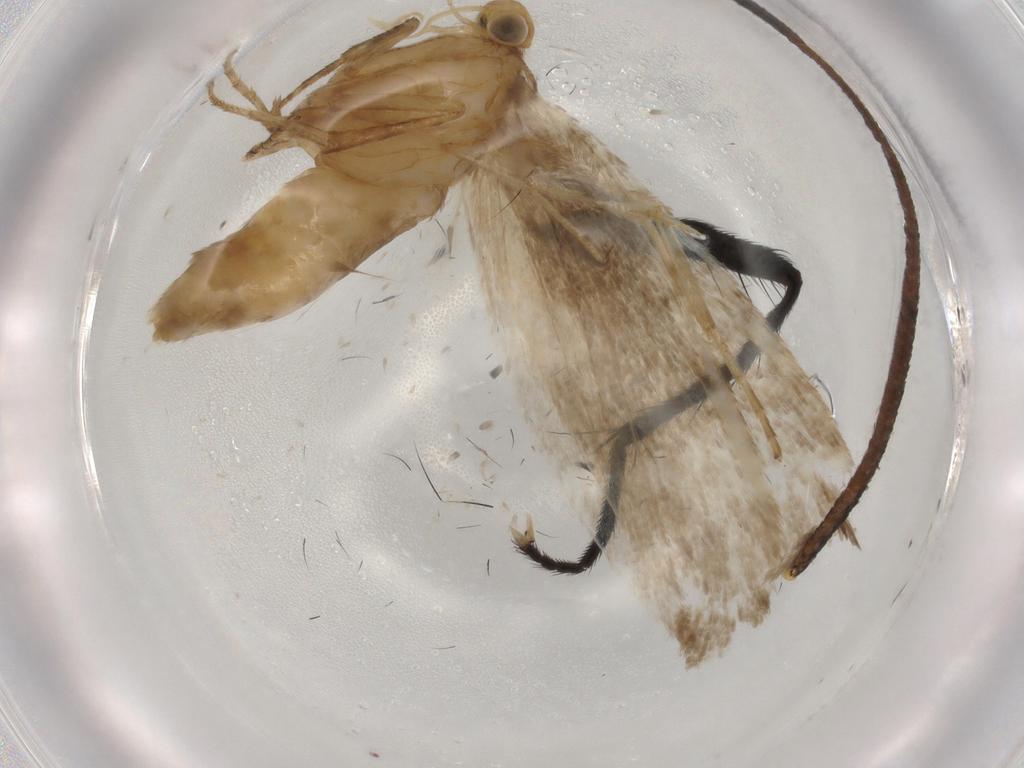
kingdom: Animalia
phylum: Arthropoda
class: Insecta
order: Lepidoptera
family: Argyresthiidae
